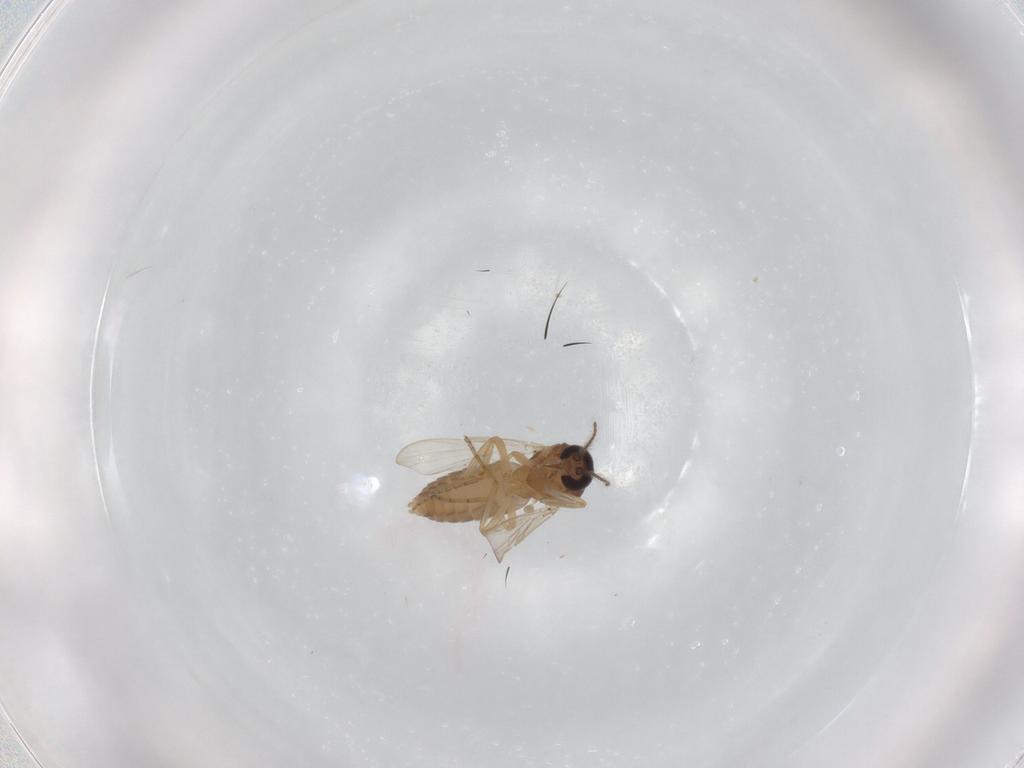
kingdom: Animalia
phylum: Arthropoda
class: Insecta
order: Diptera
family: Ceratopogonidae
